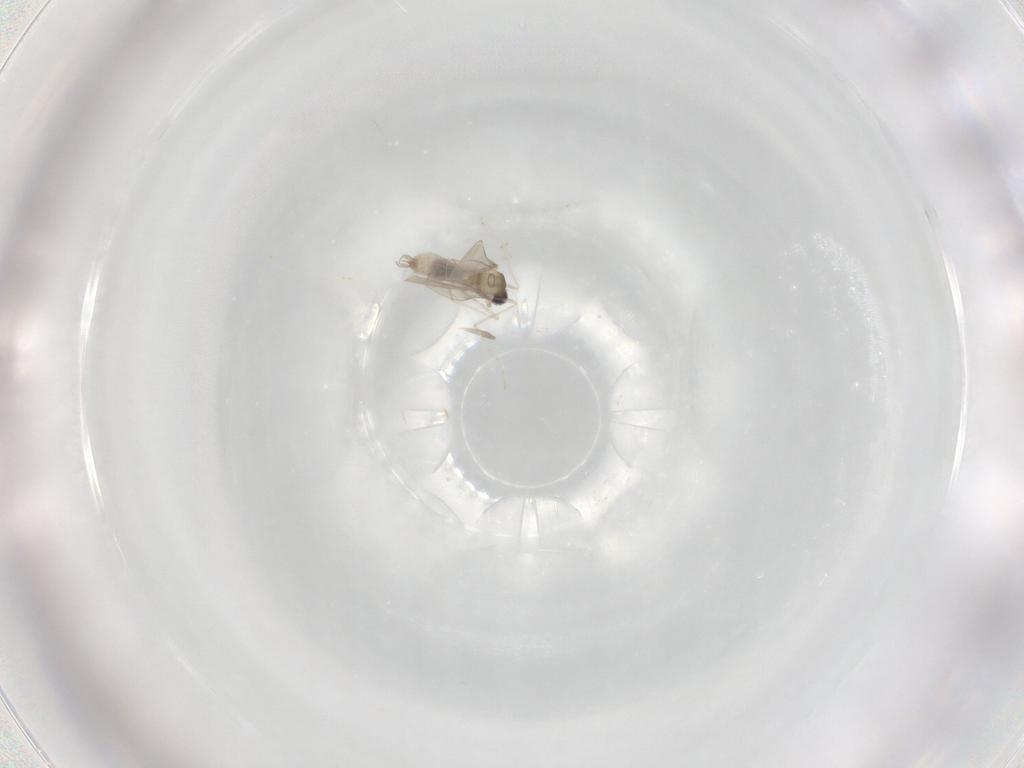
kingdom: Animalia
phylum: Arthropoda
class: Insecta
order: Diptera
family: Cecidomyiidae
